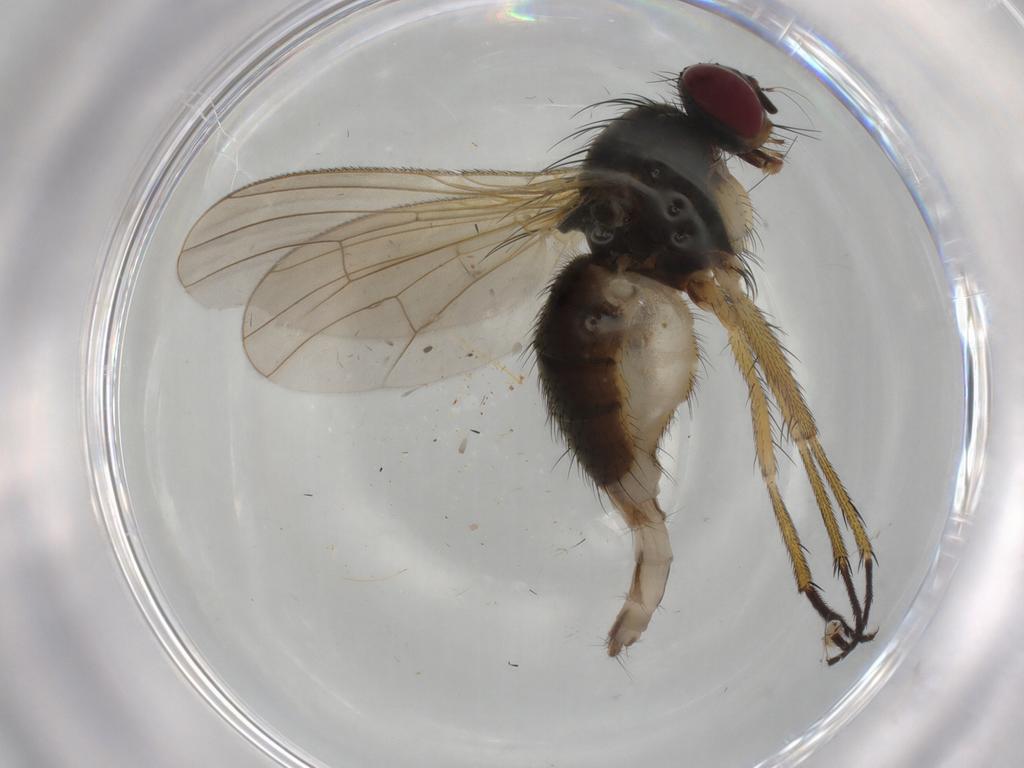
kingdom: Animalia
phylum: Arthropoda
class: Insecta
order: Diptera
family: Muscidae
